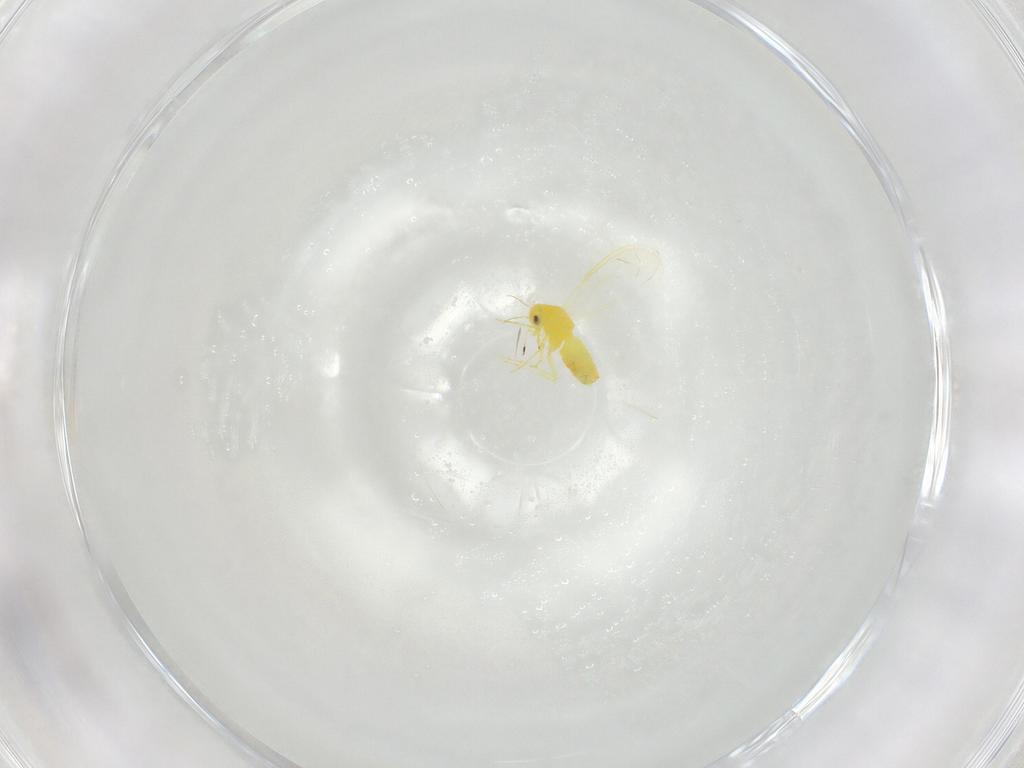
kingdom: Animalia
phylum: Arthropoda
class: Insecta
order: Hemiptera
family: Aleyrodidae
